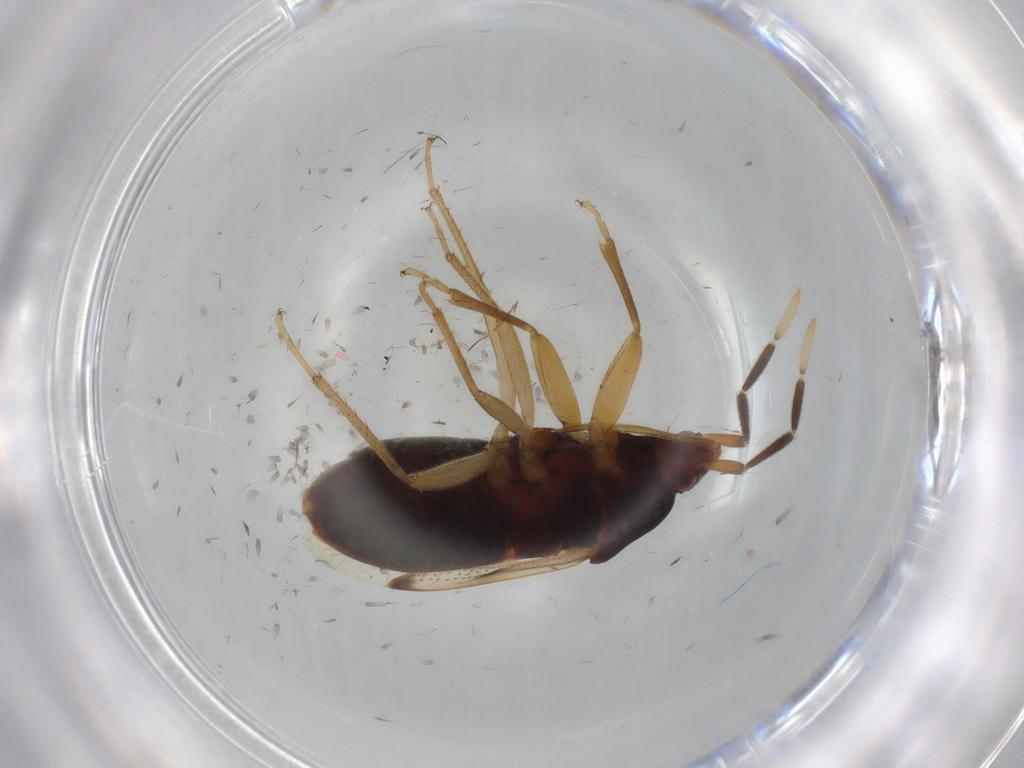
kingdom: Animalia
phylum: Arthropoda
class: Insecta
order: Hemiptera
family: Rhyparochromidae
